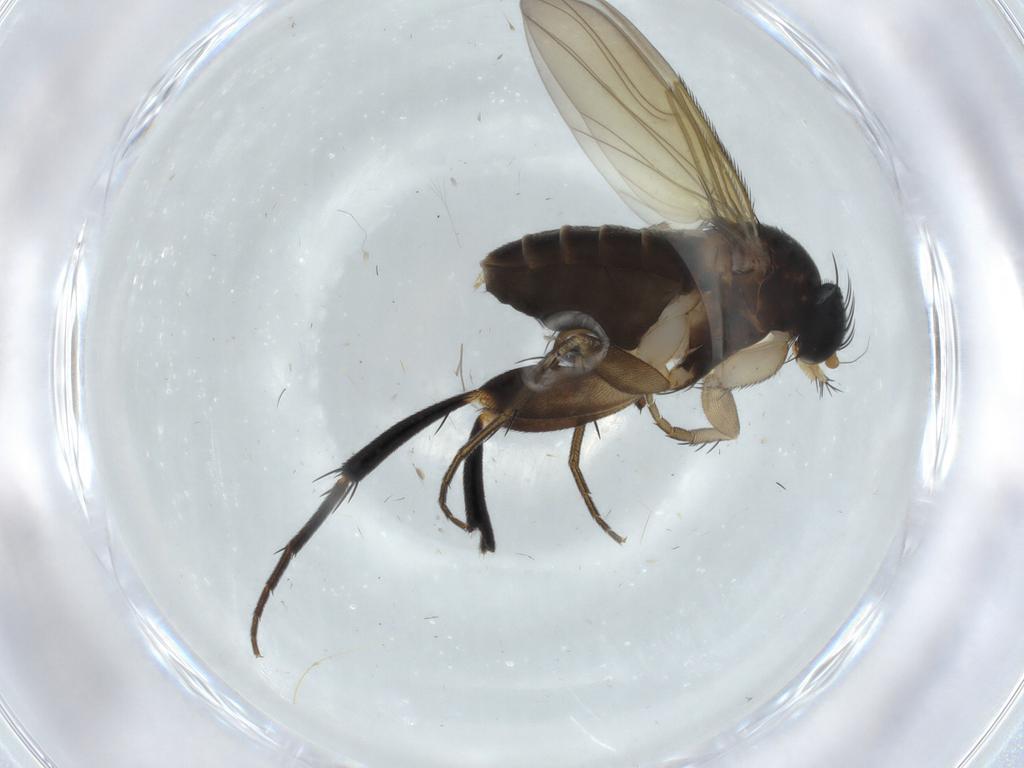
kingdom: Animalia
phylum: Arthropoda
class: Insecta
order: Diptera
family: Phoridae
